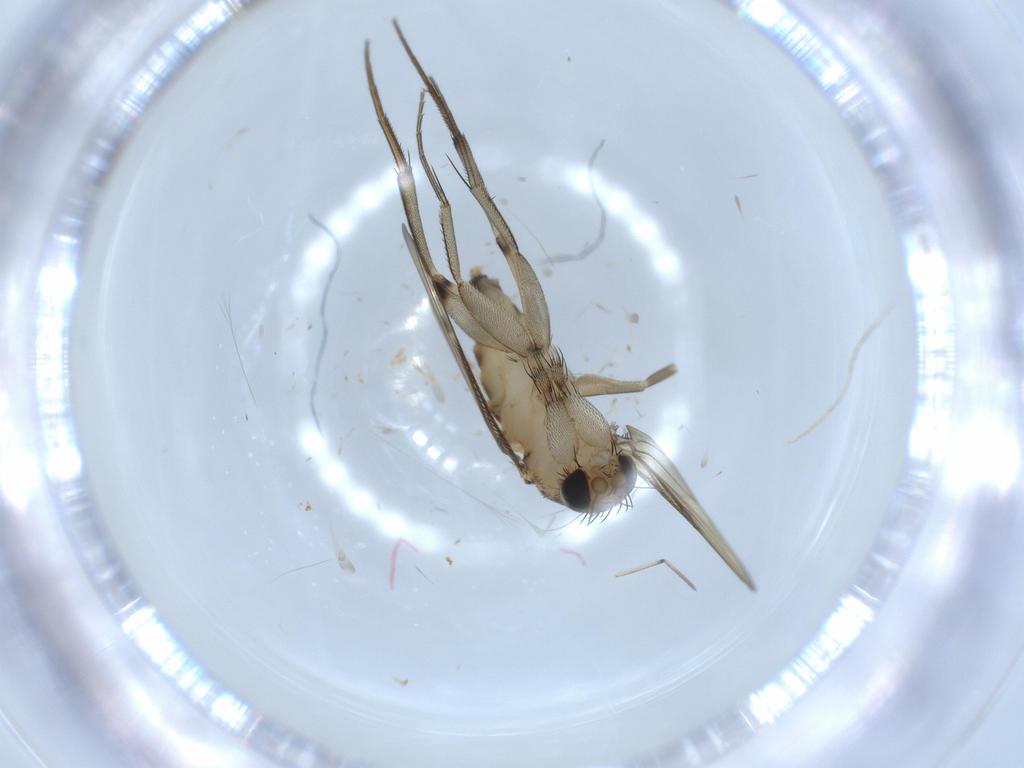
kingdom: Animalia
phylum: Arthropoda
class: Insecta
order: Diptera
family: Phoridae
